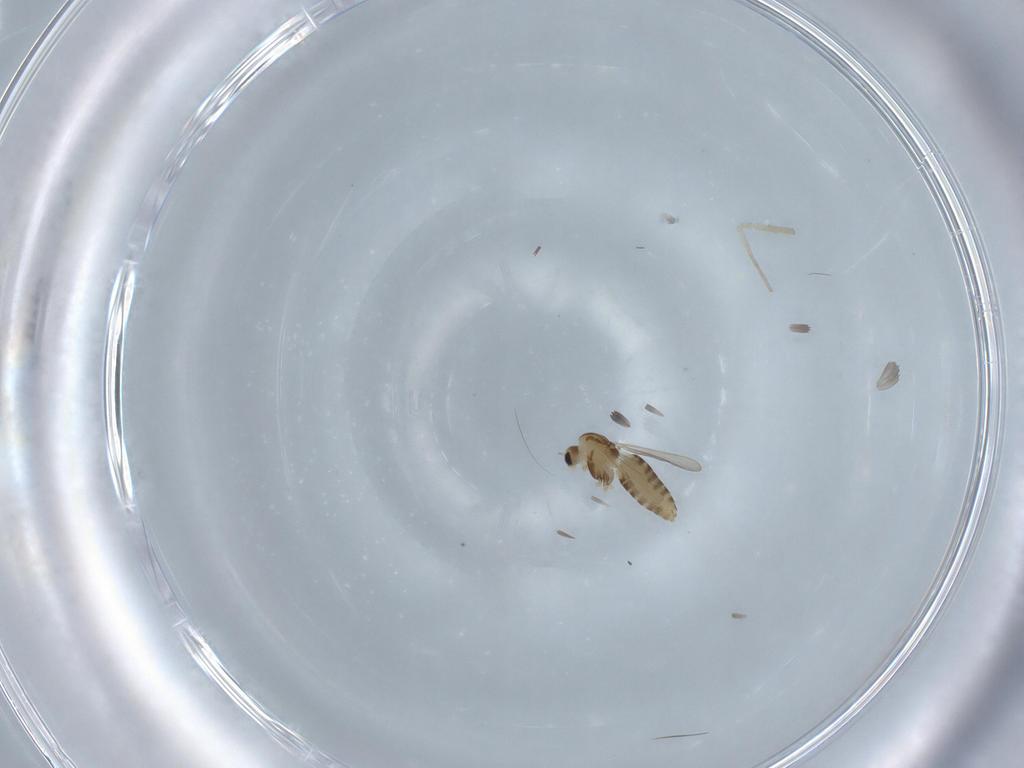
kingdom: Animalia
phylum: Arthropoda
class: Insecta
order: Diptera
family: Chironomidae
